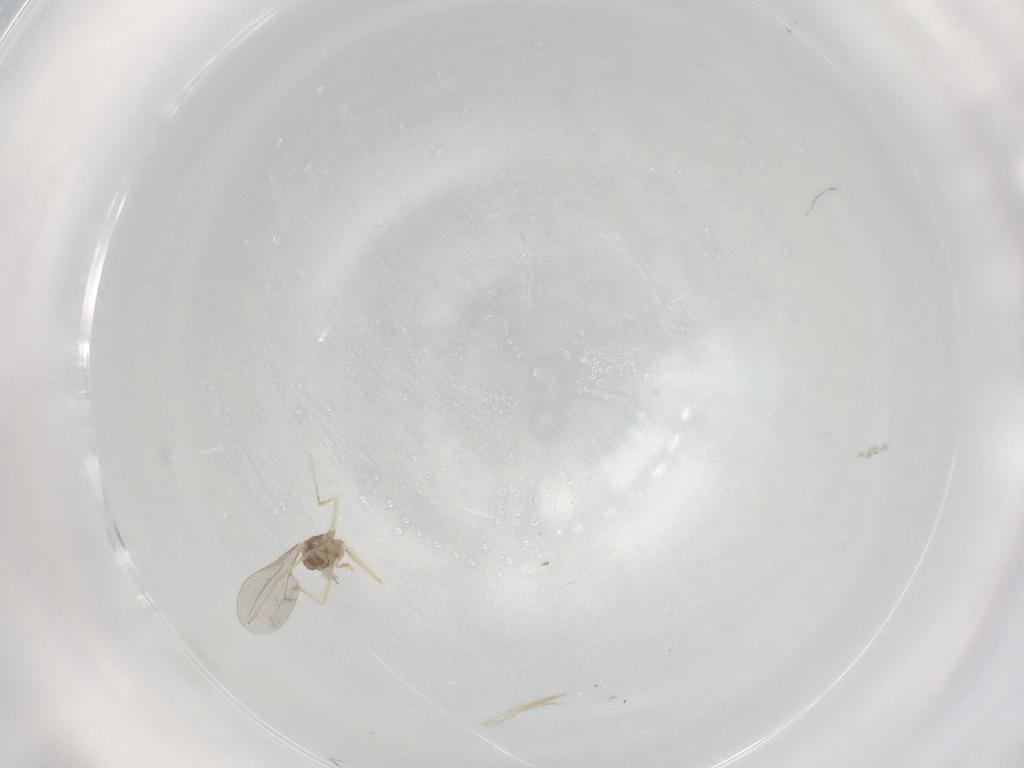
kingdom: Animalia
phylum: Arthropoda
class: Insecta
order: Diptera
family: Cecidomyiidae
